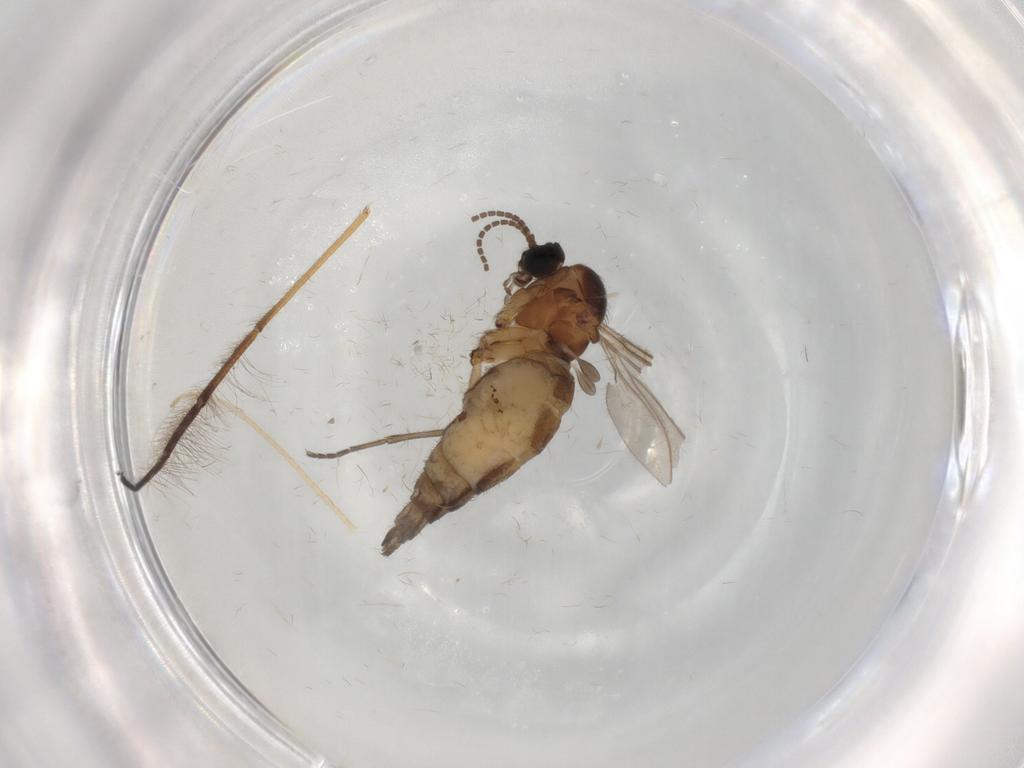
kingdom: Animalia
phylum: Arthropoda
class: Insecta
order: Diptera
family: Sciaridae
